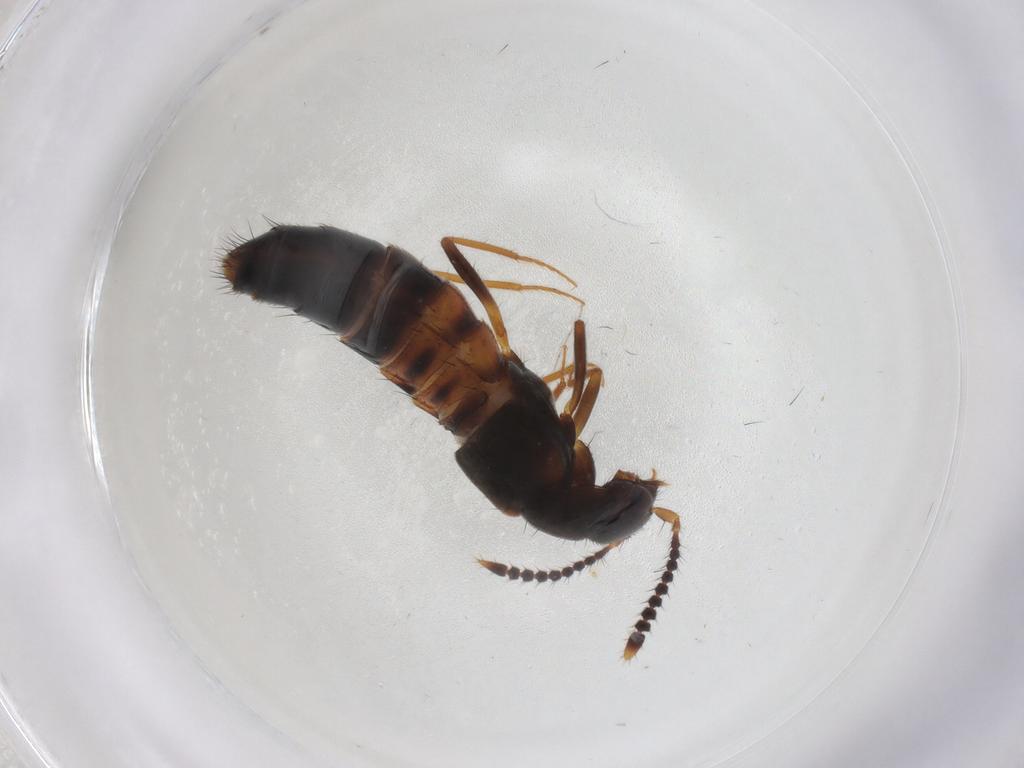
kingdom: Animalia
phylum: Arthropoda
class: Insecta
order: Coleoptera
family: Staphylinidae
